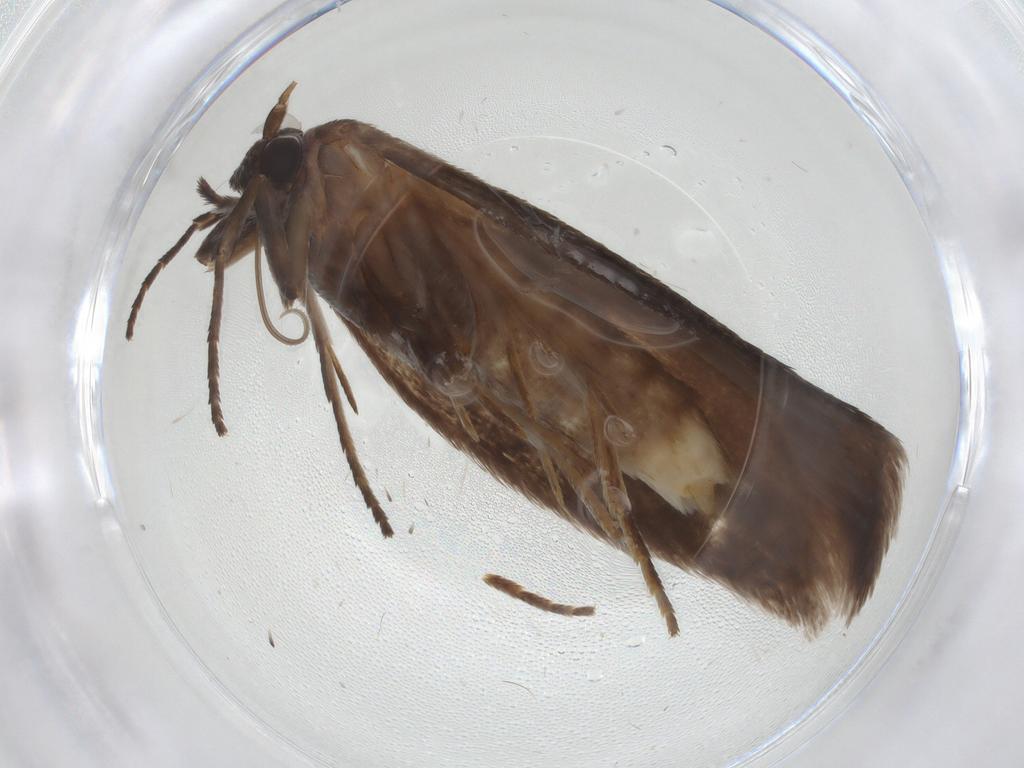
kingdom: Animalia
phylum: Arthropoda
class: Insecta
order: Lepidoptera
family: Roeslerstammiidae
